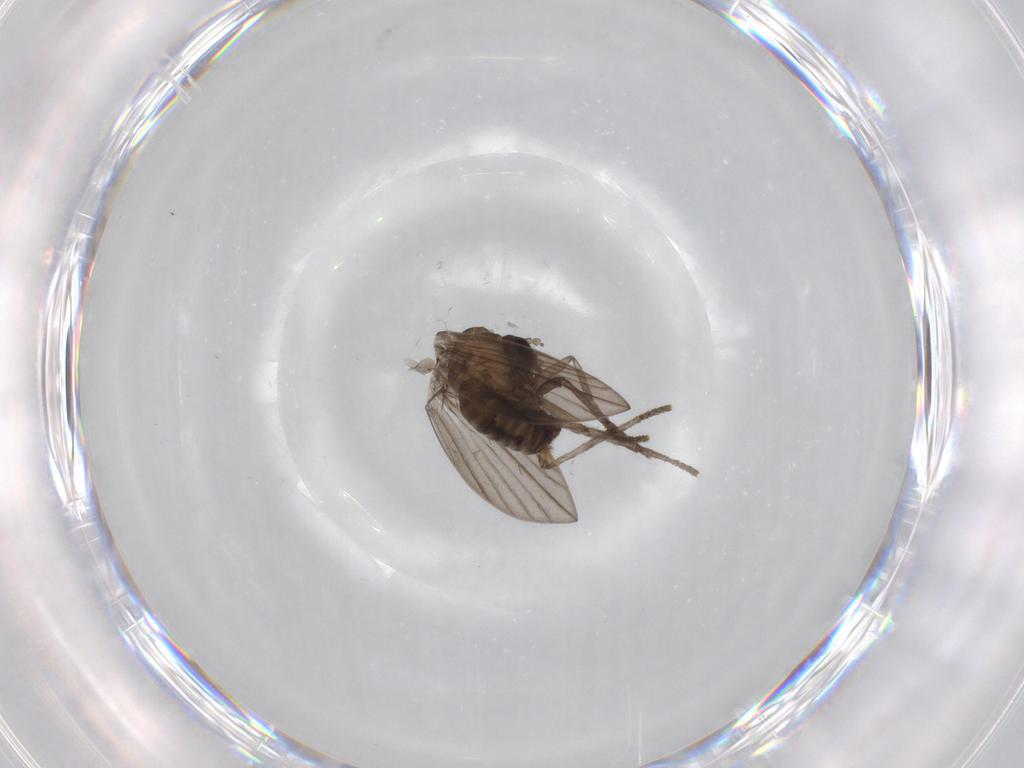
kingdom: Animalia
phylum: Arthropoda
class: Insecta
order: Diptera
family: Psychodidae
